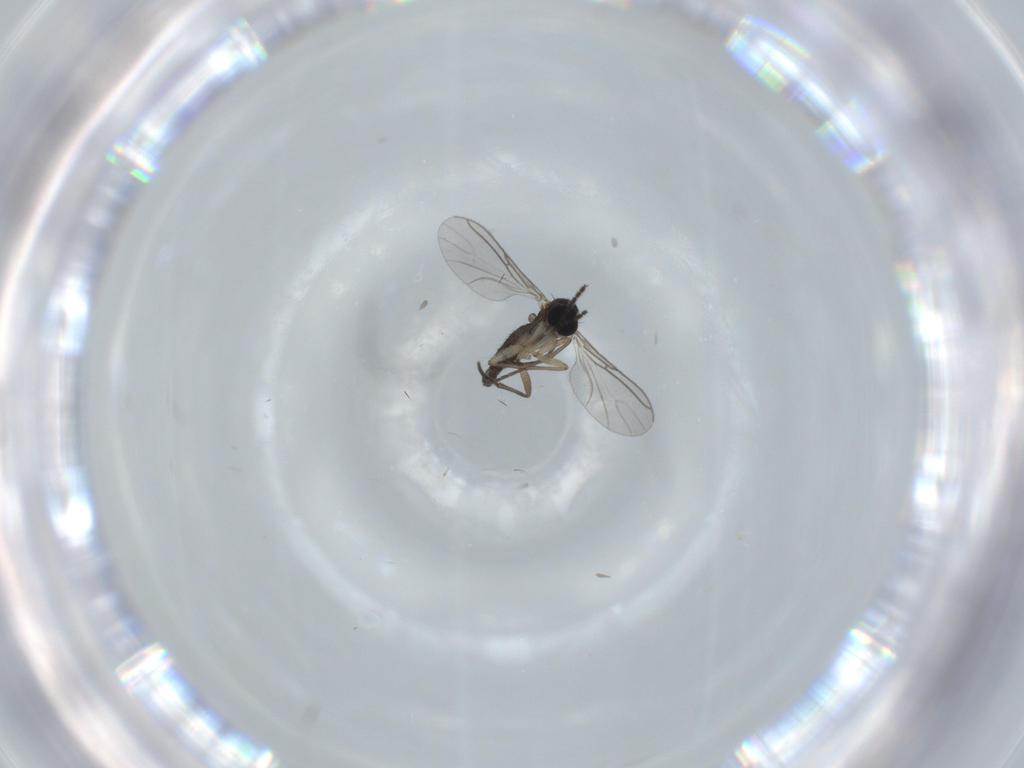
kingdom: Animalia
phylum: Arthropoda
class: Insecta
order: Diptera
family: Sciaridae
